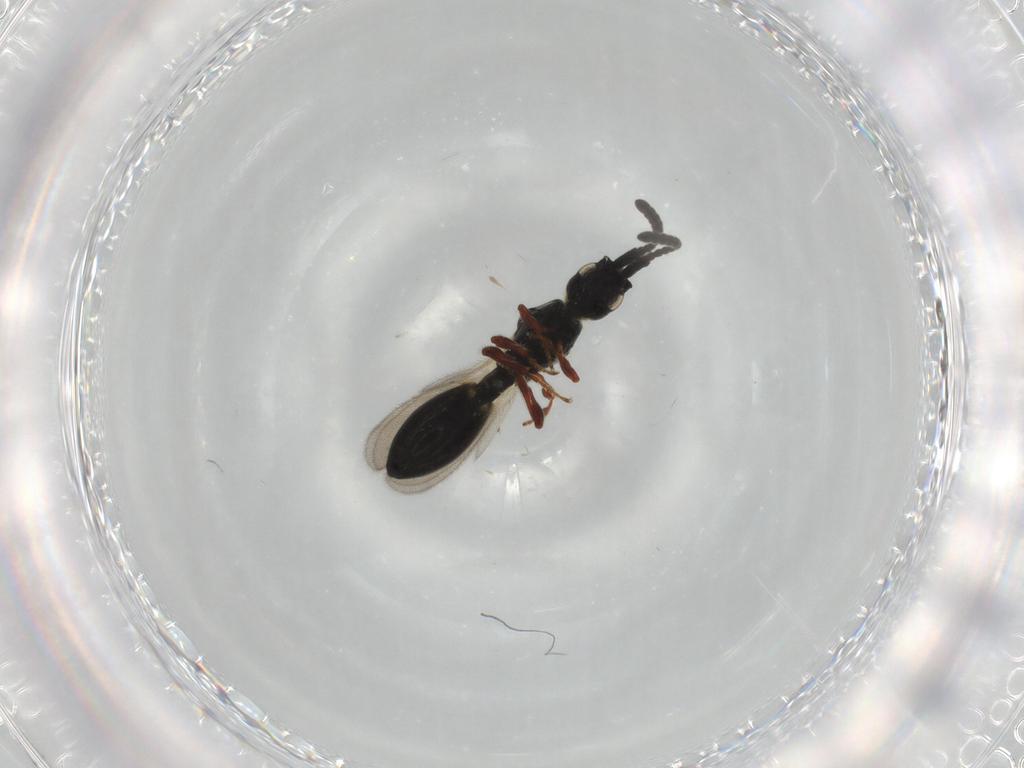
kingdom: Animalia
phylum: Arthropoda
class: Insecta
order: Hymenoptera
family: Diapriidae
